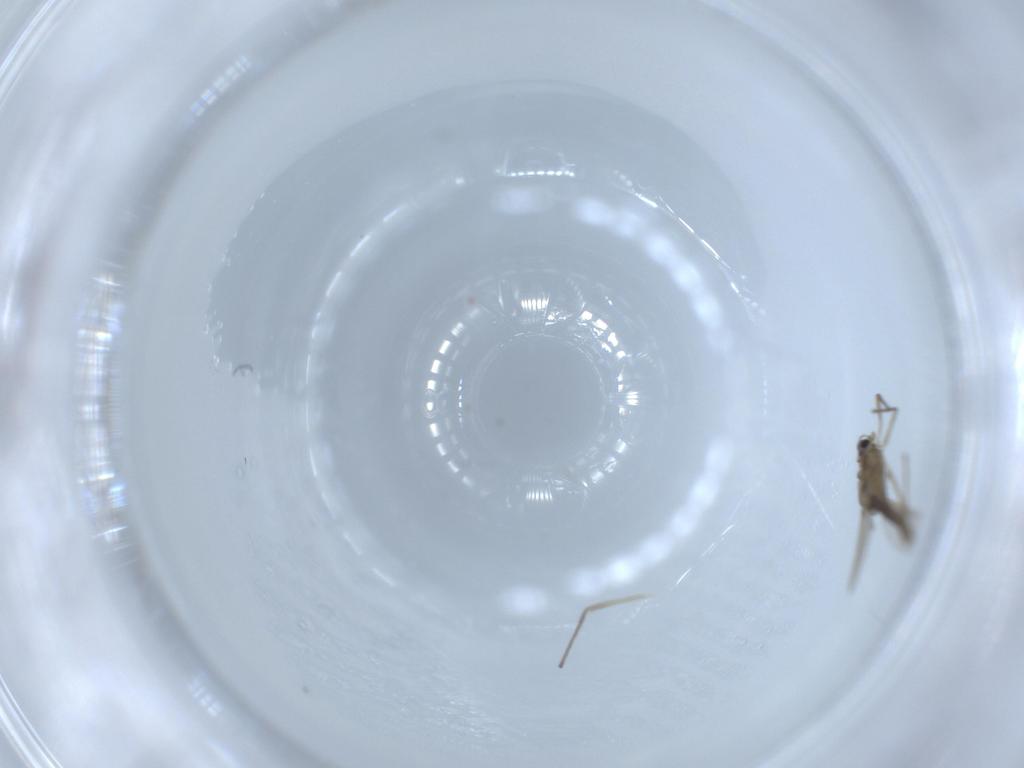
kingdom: Animalia
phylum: Arthropoda
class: Insecta
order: Diptera
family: Chironomidae
